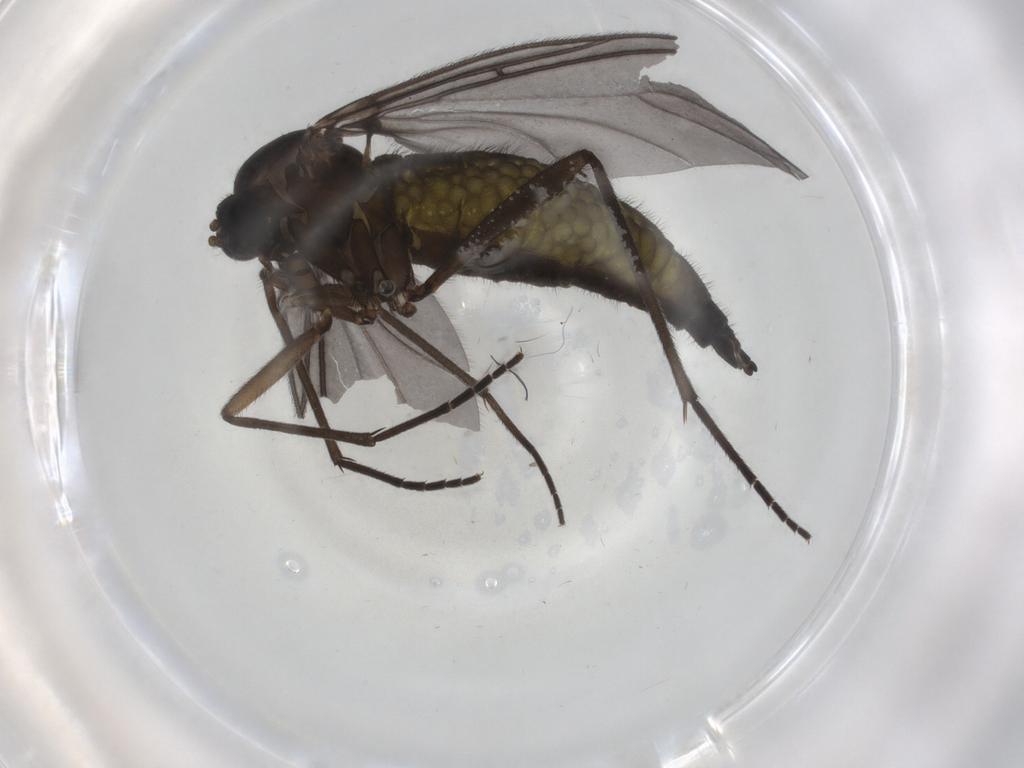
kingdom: Animalia
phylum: Arthropoda
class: Insecta
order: Diptera
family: Sciaridae
